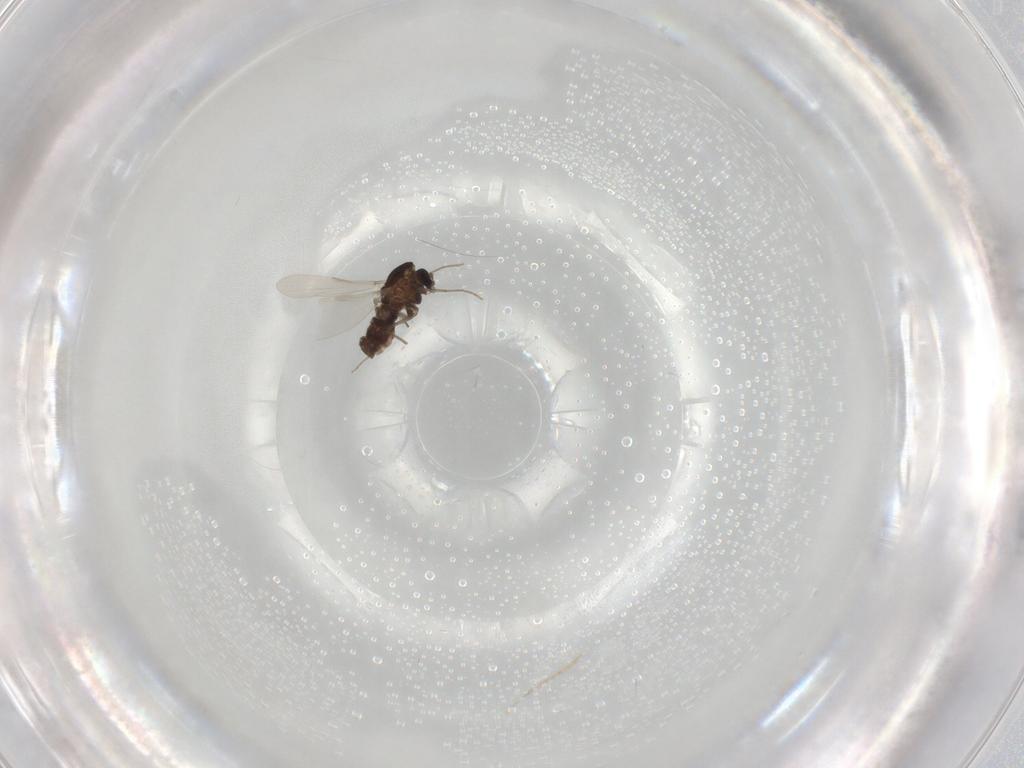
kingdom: Animalia
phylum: Arthropoda
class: Insecta
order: Diptera
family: Chironomidae
